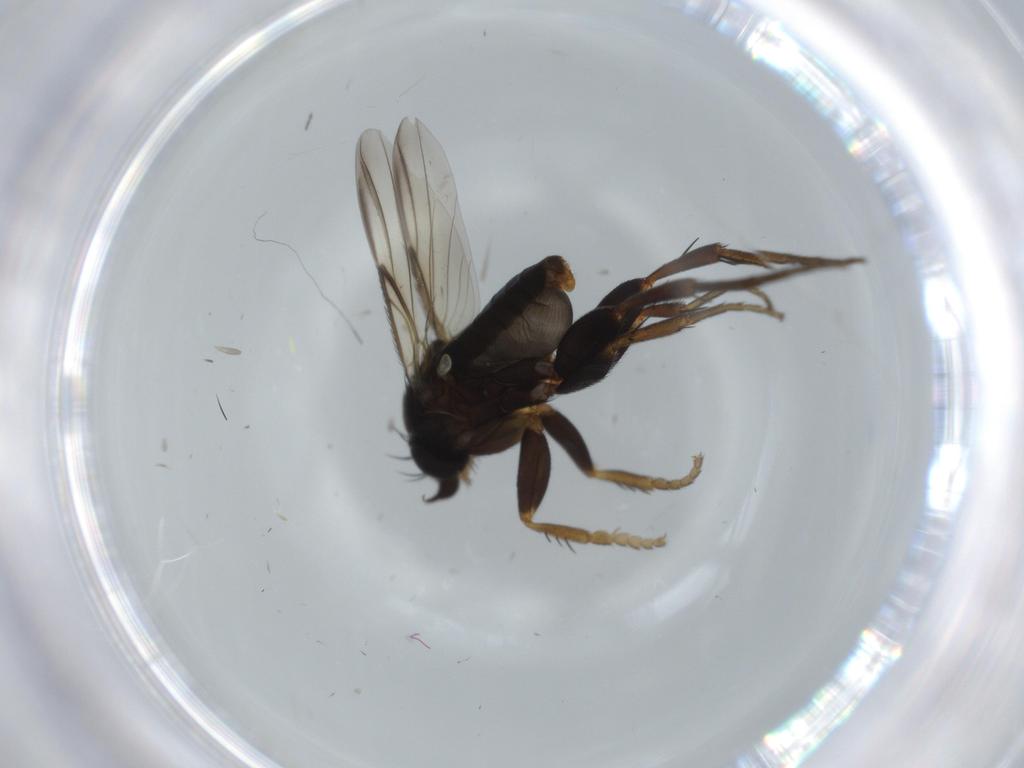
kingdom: Animalia
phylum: Arthropoda
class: Insecta
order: Diptera
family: Phoridae
